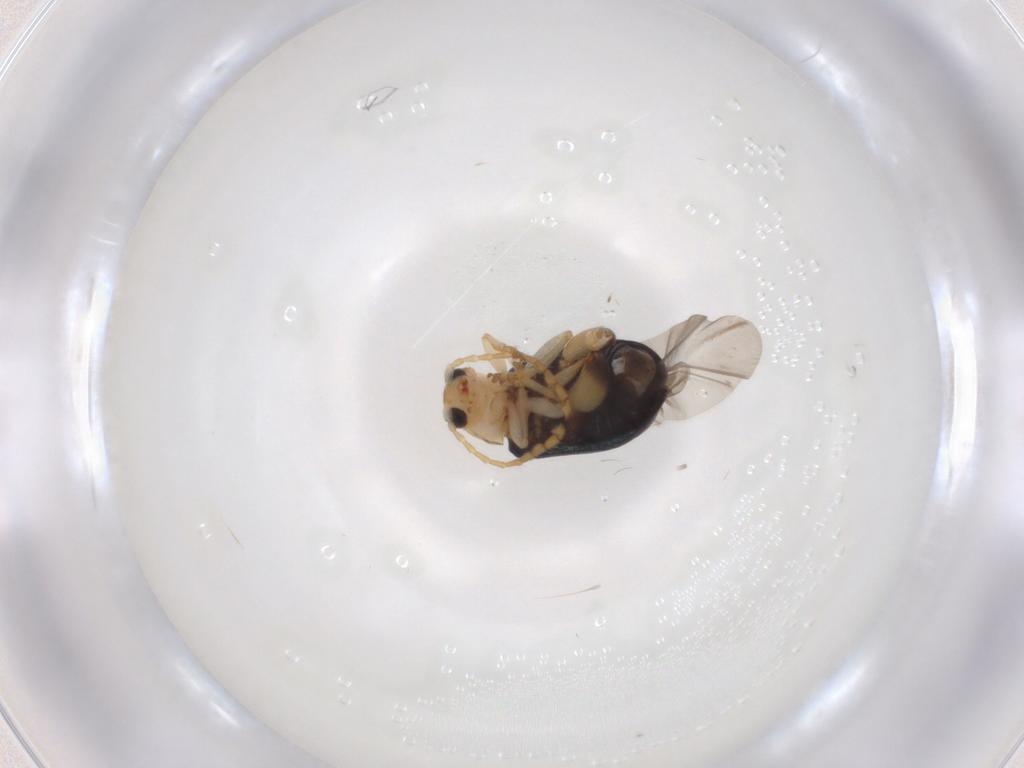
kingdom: Animalia
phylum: Arthropoda
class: Insecta
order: Coleoptera
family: Chrysomelidae
